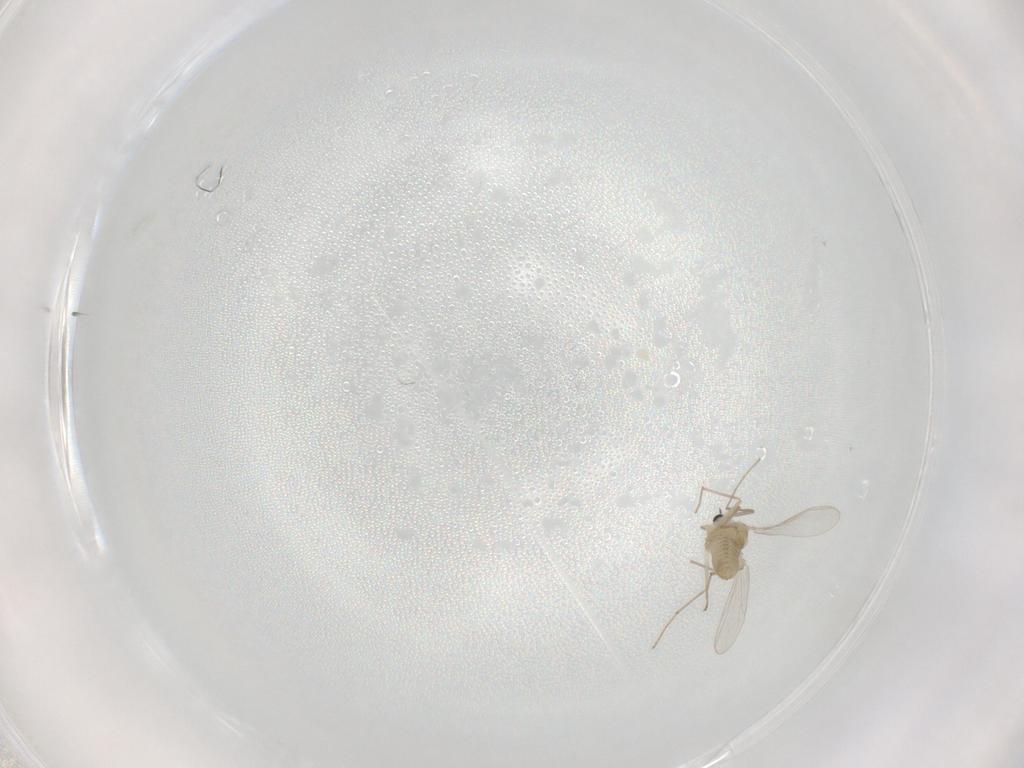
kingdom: Animalia
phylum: Arthropoda
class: Insecta
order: Diptera
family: Chironomidae
